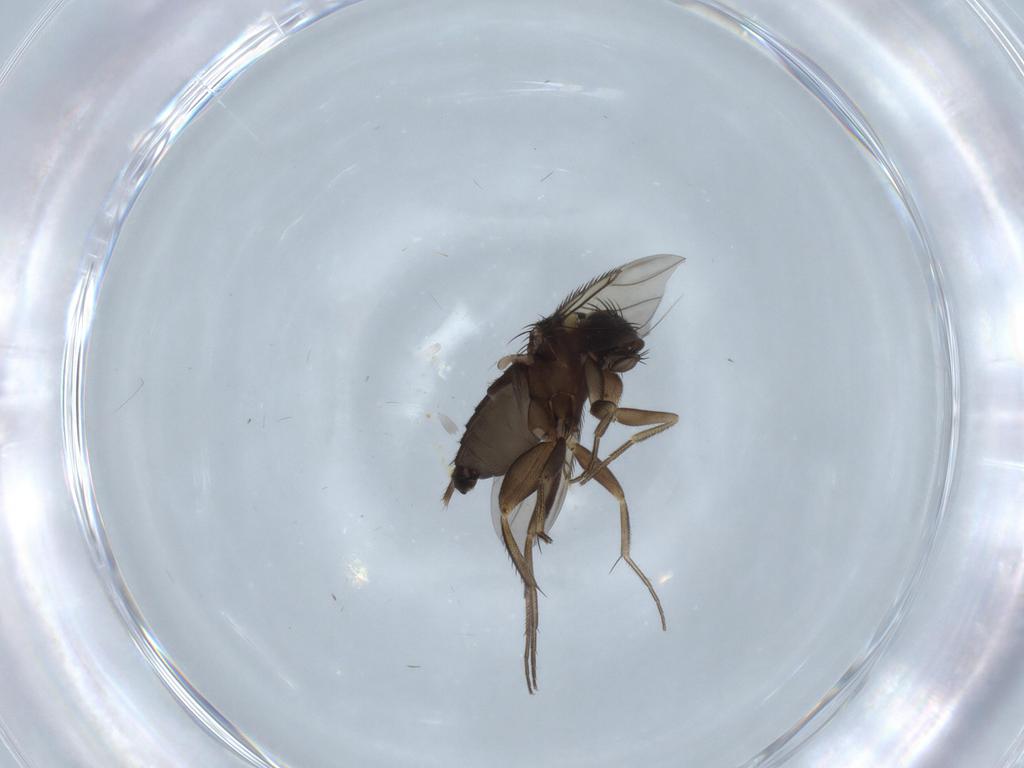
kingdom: Animalia
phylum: Arthropoda
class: Insecta
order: Diptera
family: Phoridae
